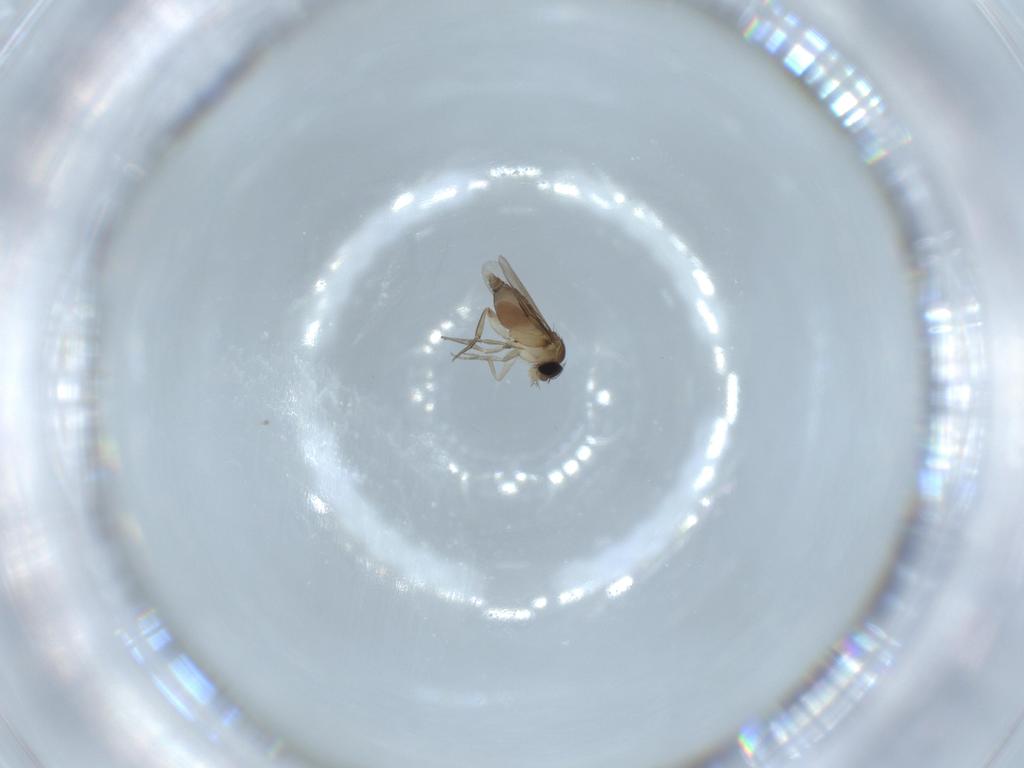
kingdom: Animalia
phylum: Arthropoda
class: Insecta
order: Diptera
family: Phoridae
